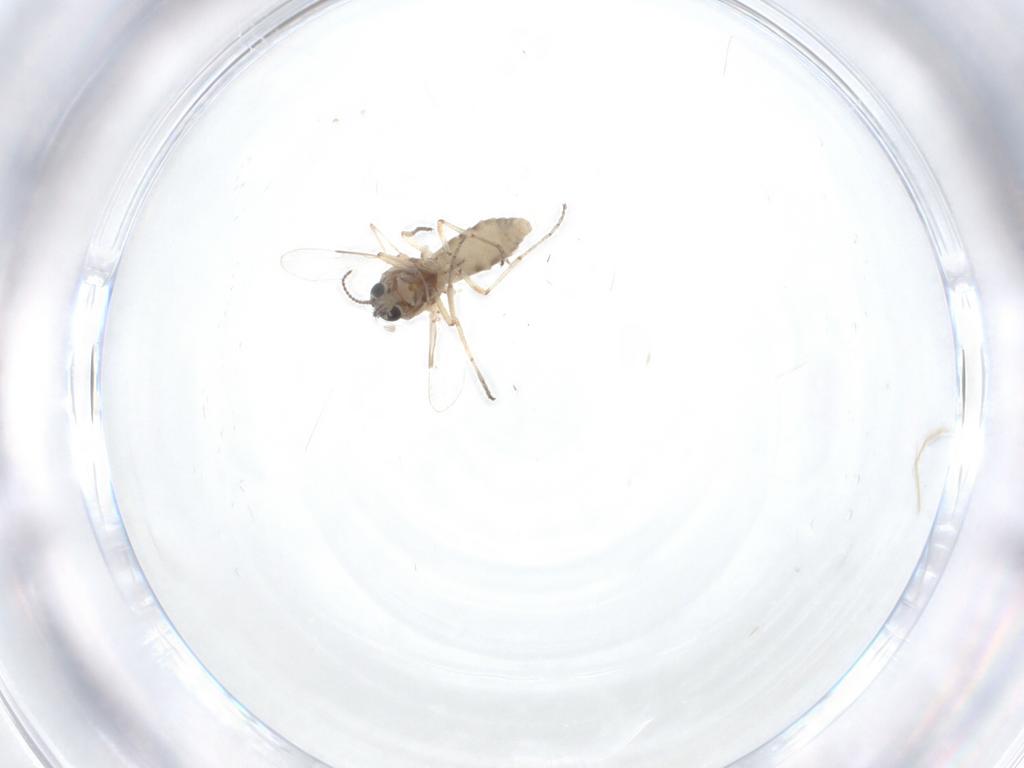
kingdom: Animalia
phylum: Arthropoda
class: Insecta
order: Diptera
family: Ceratopogonidae
